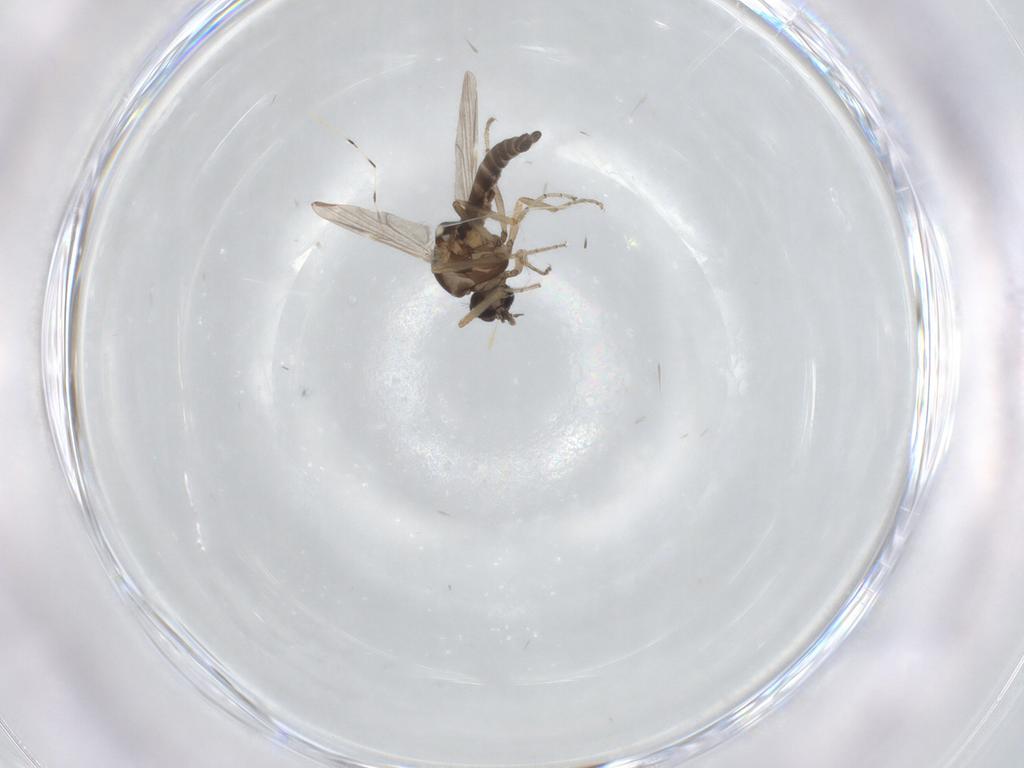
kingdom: Animalia
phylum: Arthropoda
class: Insecta
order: Diptera
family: Ceratopogonidae
